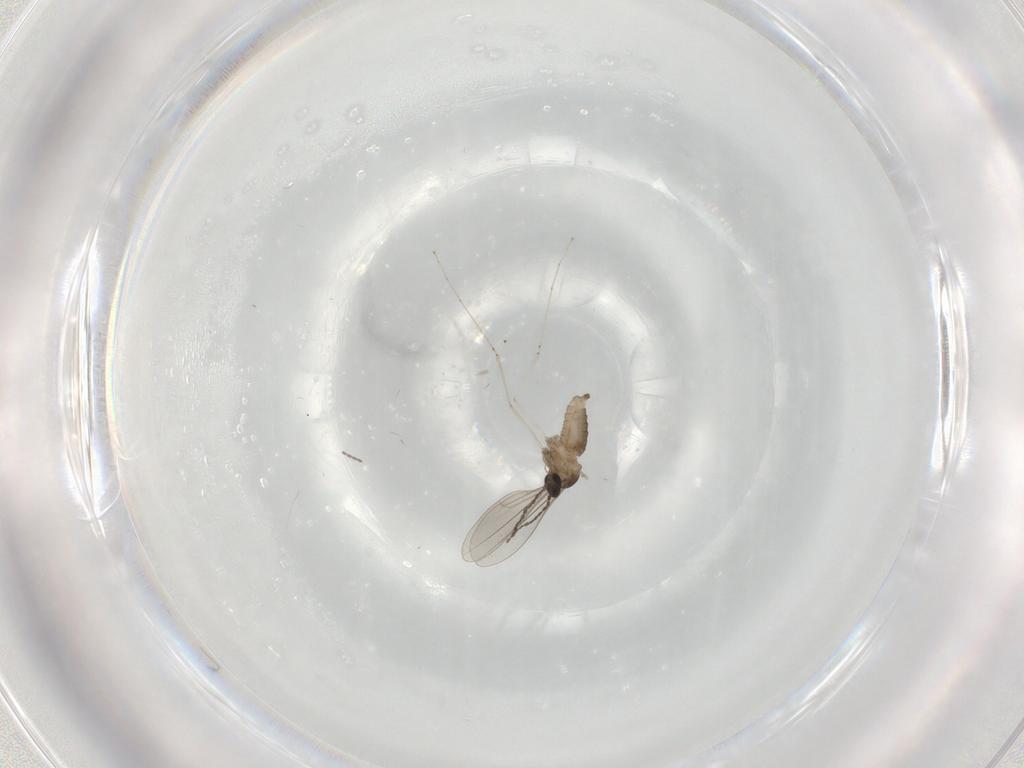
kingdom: Animalia
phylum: Arthropoda
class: Insecta
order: Diptera
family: Cecidomyiidae
